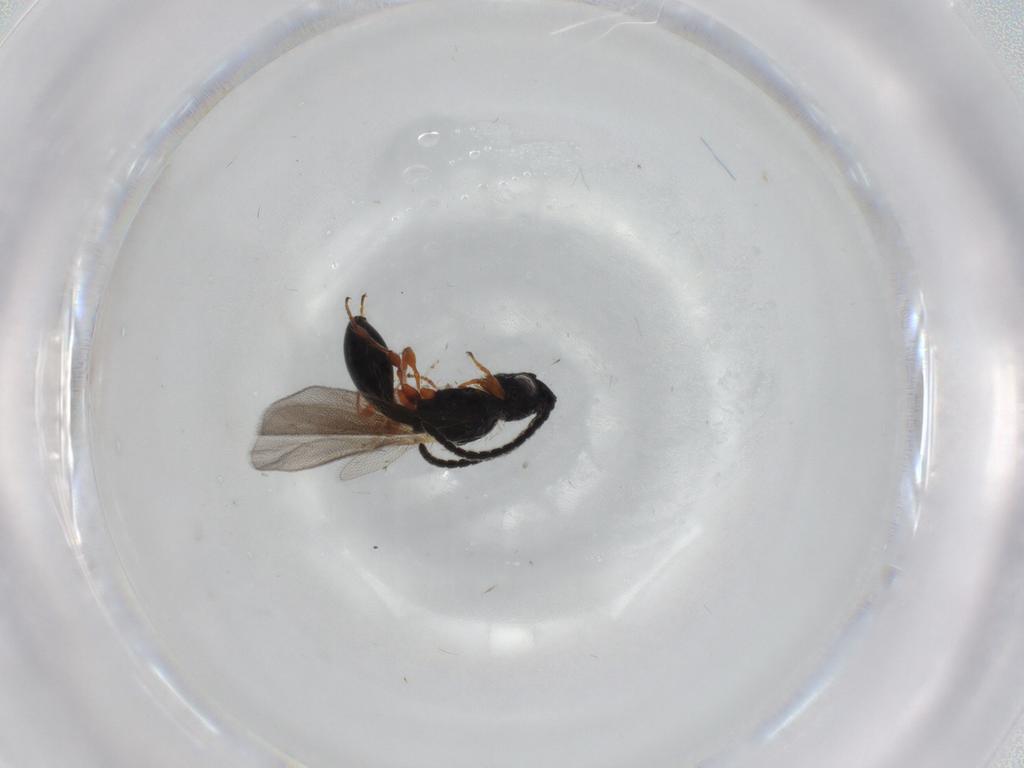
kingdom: Animalia
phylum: Arthropoda
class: Insecta
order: Hymenoptera
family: Diapriidae
